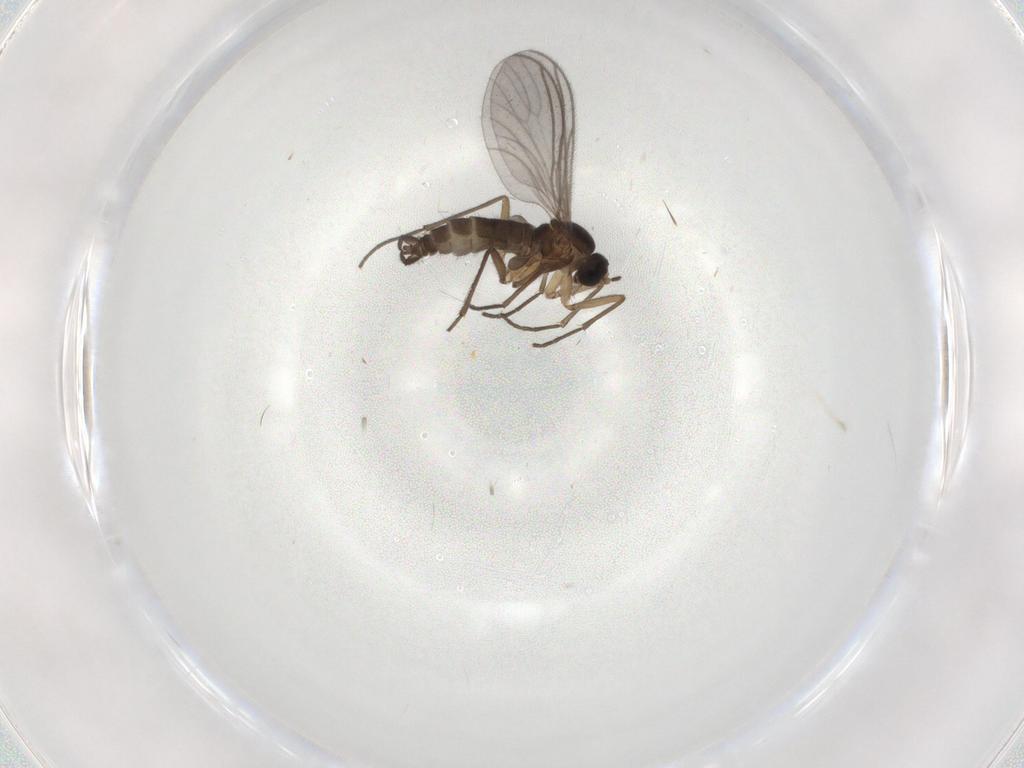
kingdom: Animalia
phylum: Arthropoda
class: Insecta
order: Diptera
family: Sciaridae
